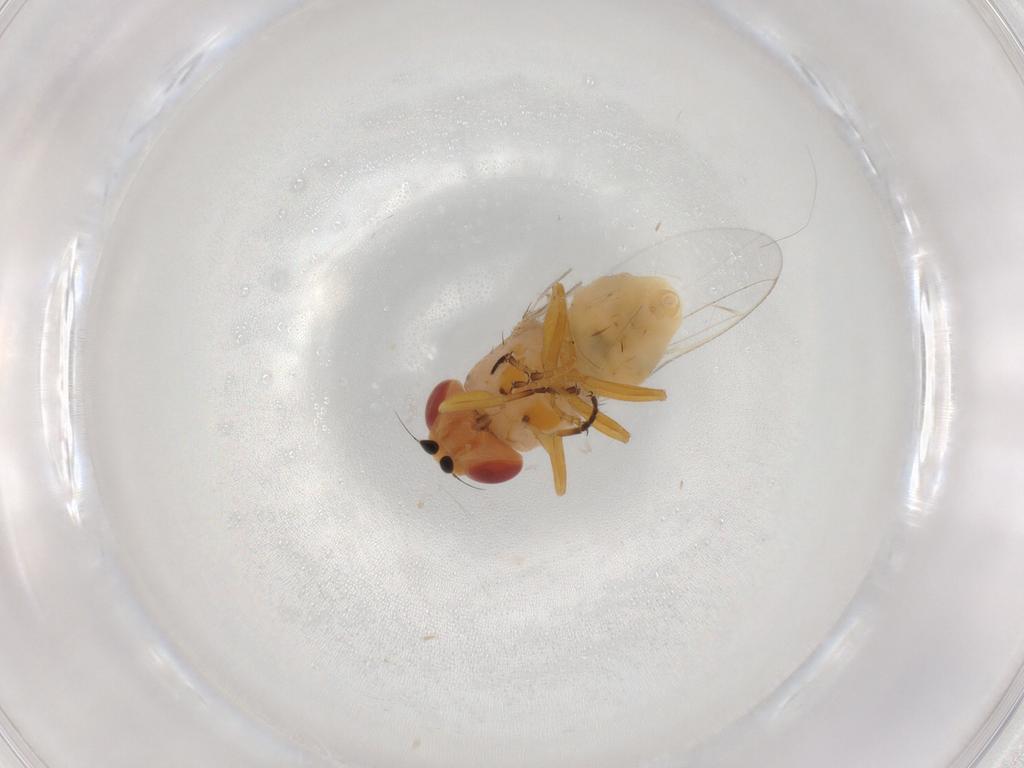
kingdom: Animalia
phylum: Arthropoda
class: Insecta
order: Diptera
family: Chloropidae
